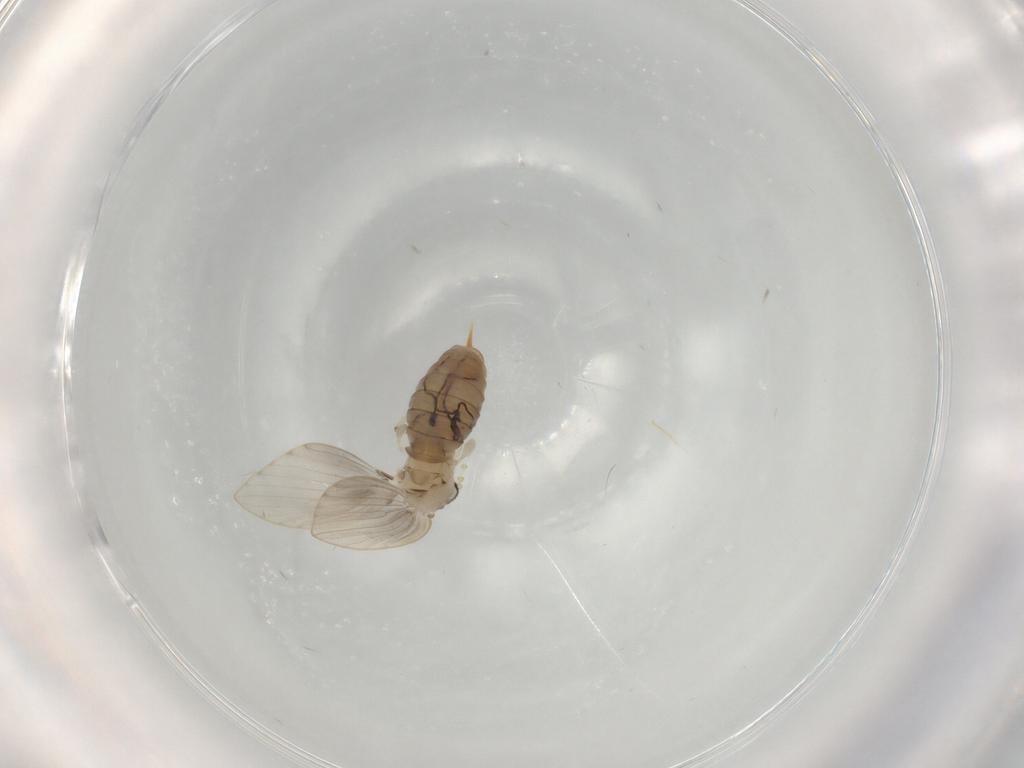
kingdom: Animalia
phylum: Arthropoda
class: Insecta
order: Diptera
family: Psychodidae
